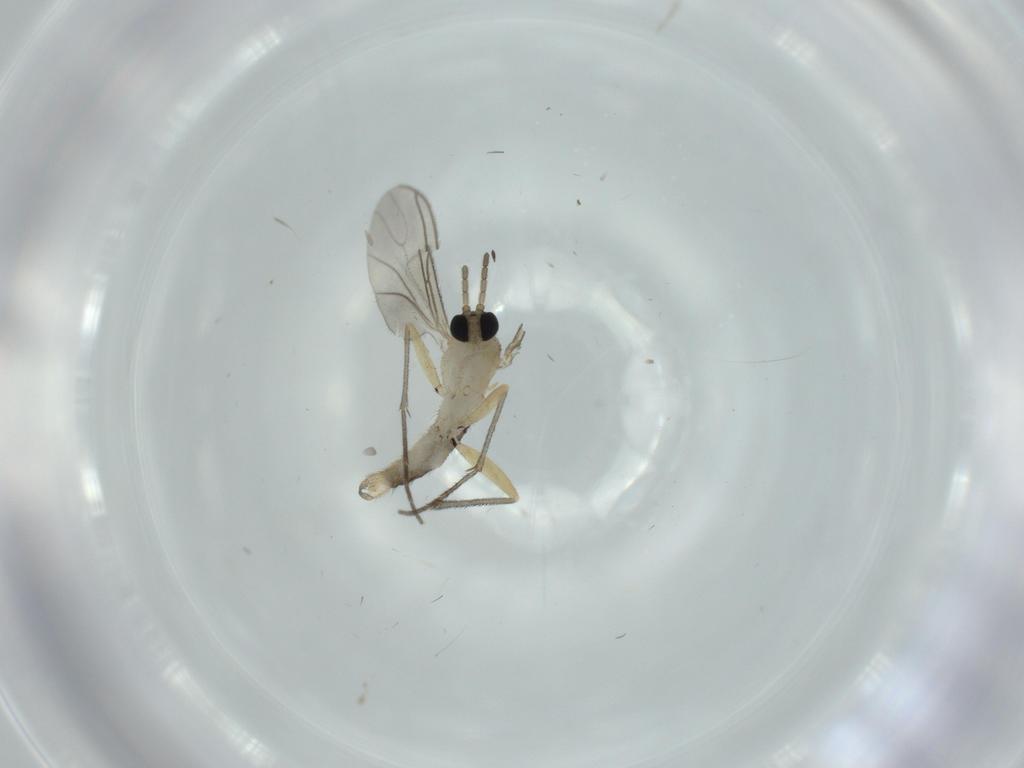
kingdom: Animalia
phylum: Arthropoda
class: Insecta
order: Diptera
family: Sciaridae
